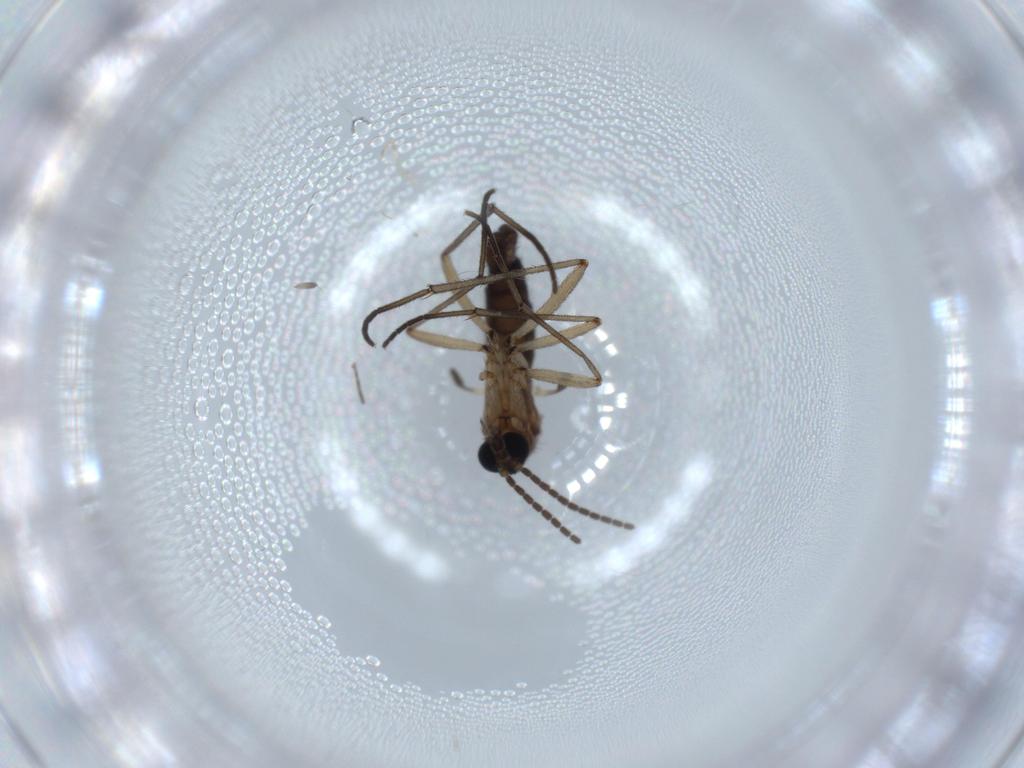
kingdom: Animalia
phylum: Arthropoda
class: Insecta
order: Diptera
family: Sciaridae
